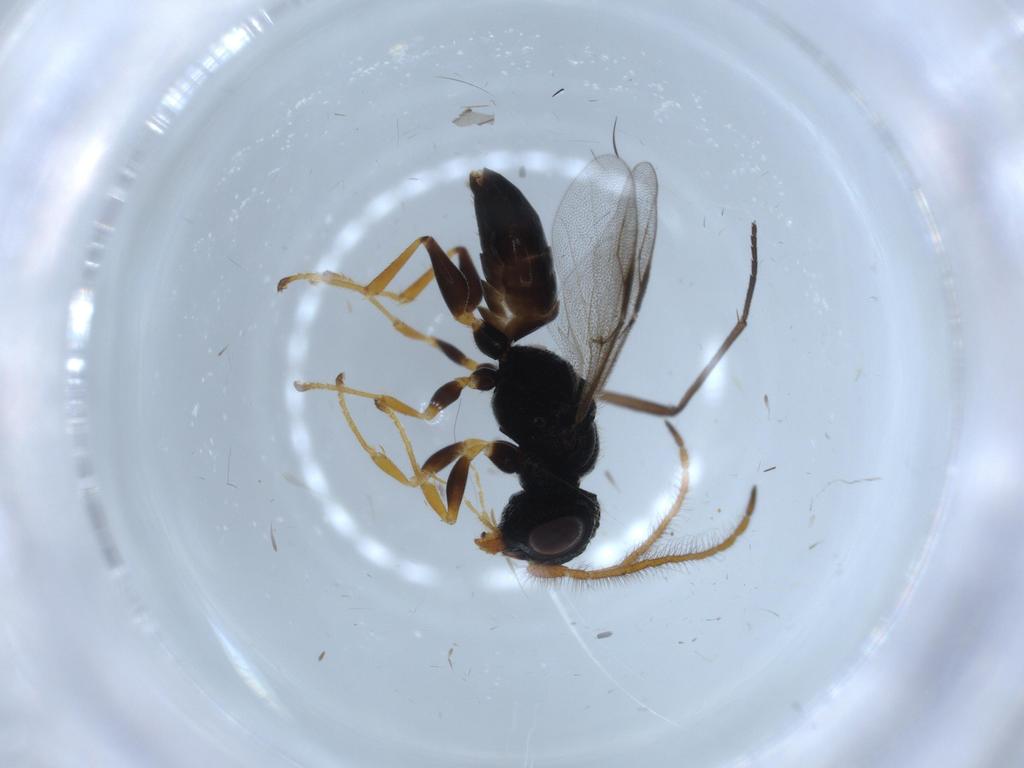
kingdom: Animalia
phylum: Arthropoda
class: Insecta
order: Hymenoptera
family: Dryinidae
